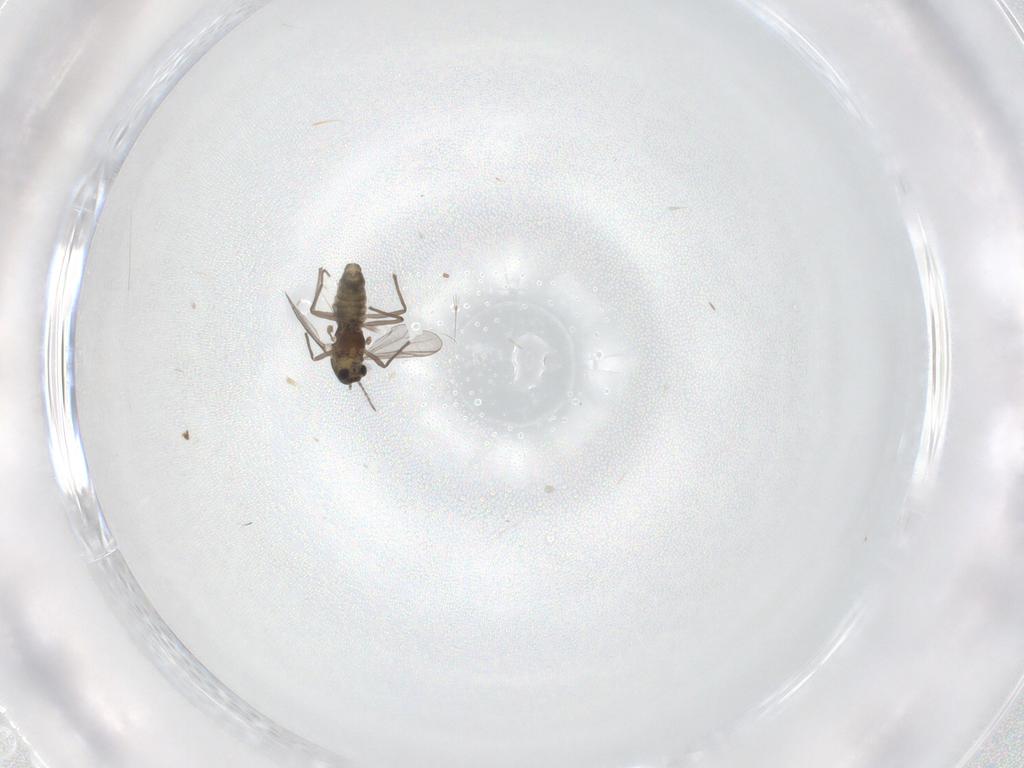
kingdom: Animalia
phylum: Arthropoda
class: Insecta
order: Diptera
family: Chironomidae
